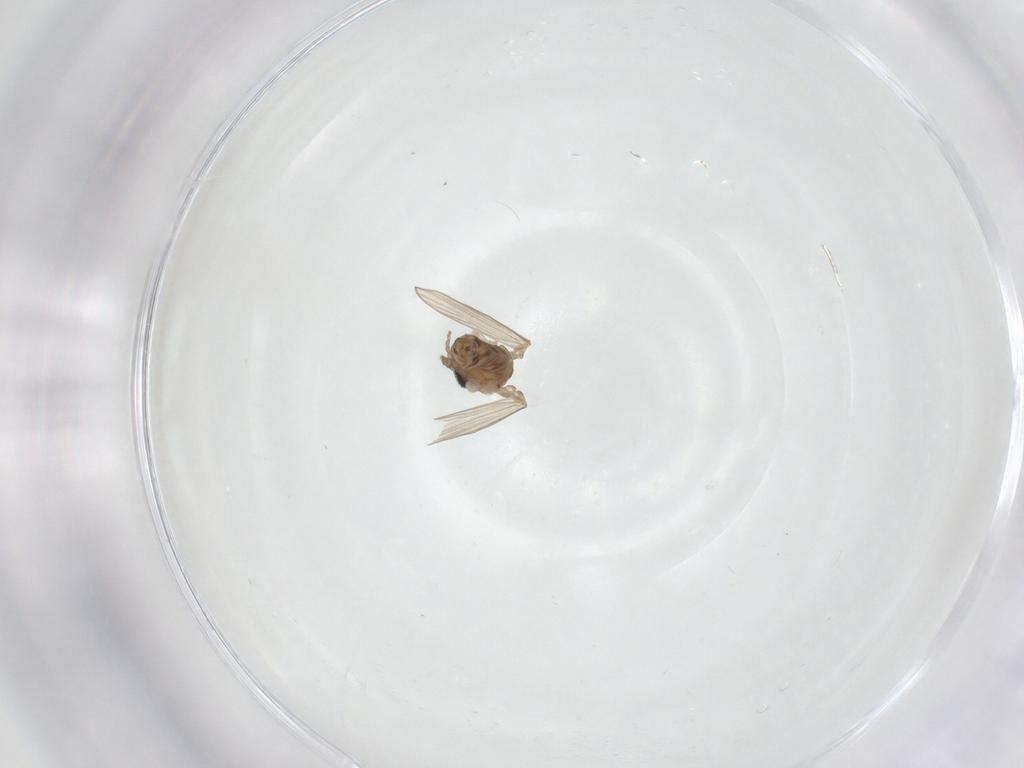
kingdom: Animalia
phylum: Arthropoda
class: Insecta
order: Diptera
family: Psychodidae
